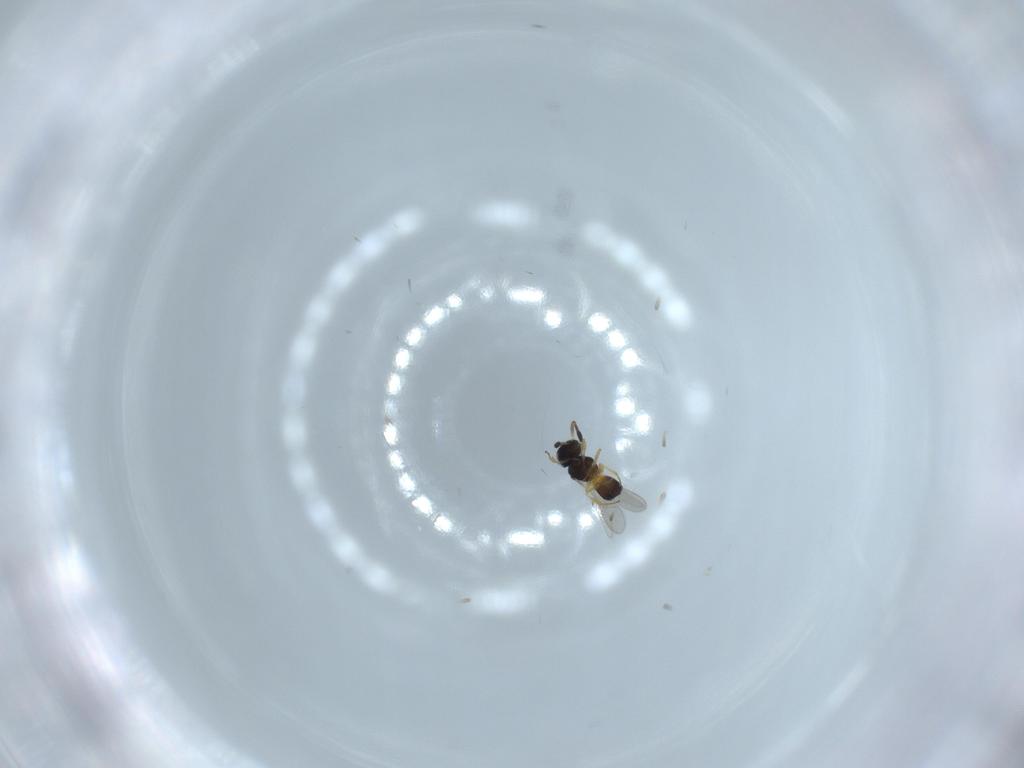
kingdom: Animalia
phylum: Arthropoda
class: Insecta
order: Hymenoptera
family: Scelionidae
